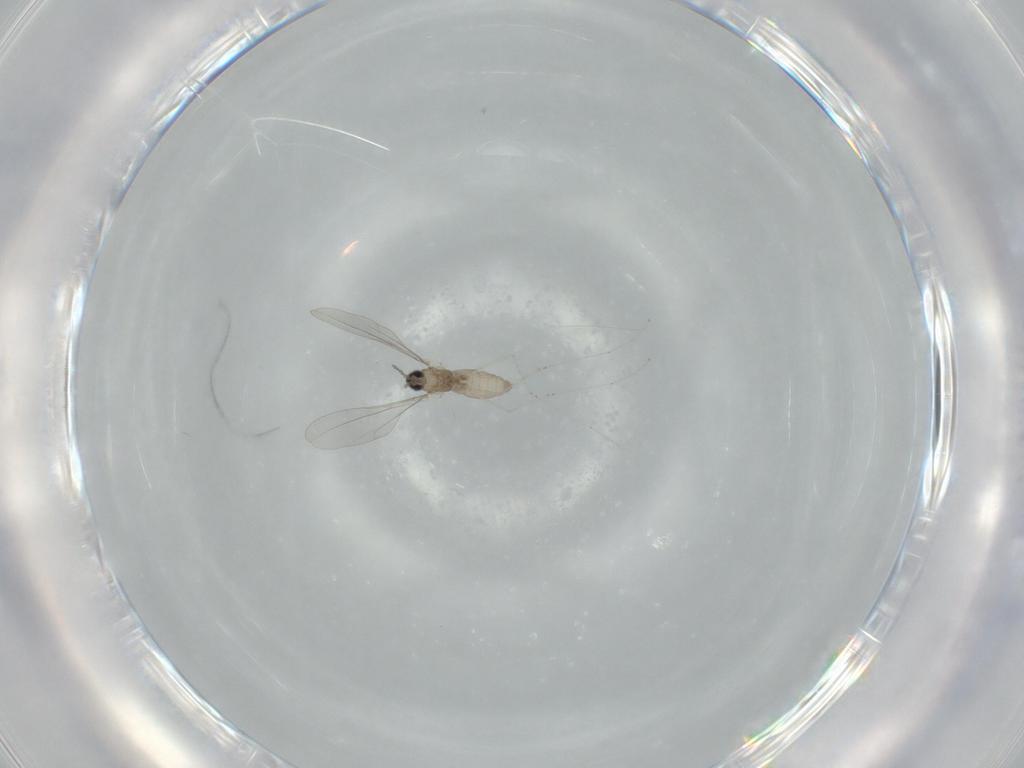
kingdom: Animalia
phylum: Arthropoda
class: Insecta
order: Diptera
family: Cecidomyiidae
